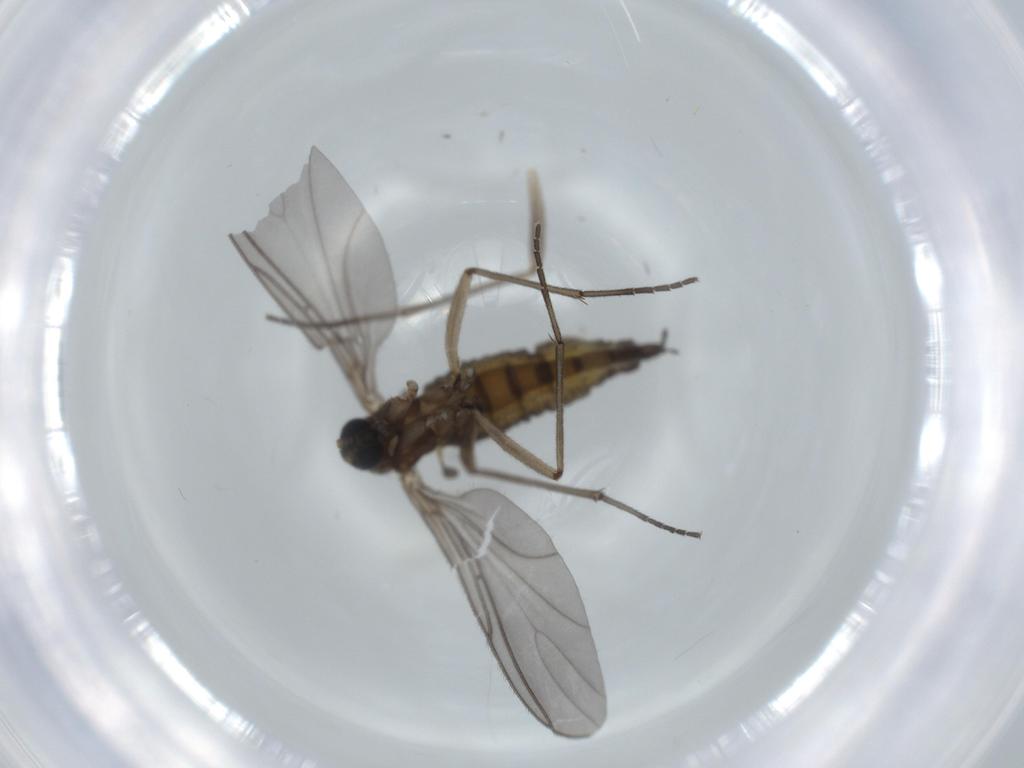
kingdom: Animalia
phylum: Arthropoda
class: Insecta
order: Diptera
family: Sciaridae
